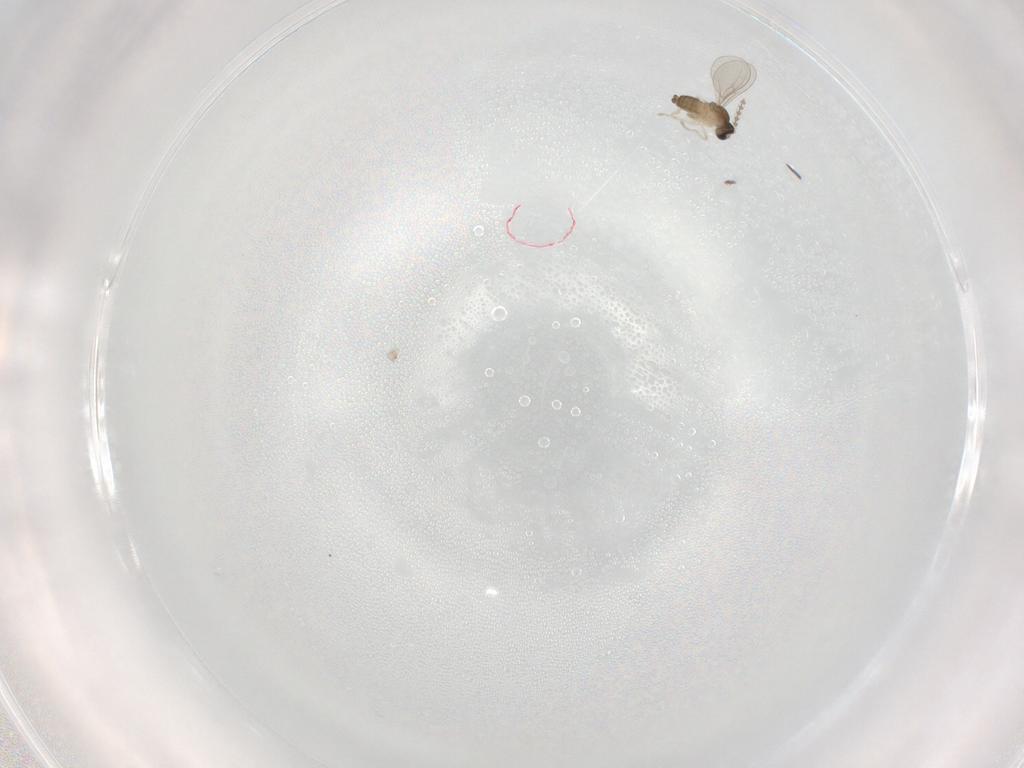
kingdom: Animalia
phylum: Arthropoda
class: Insecta
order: Diptera
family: Cecidomyiidae
